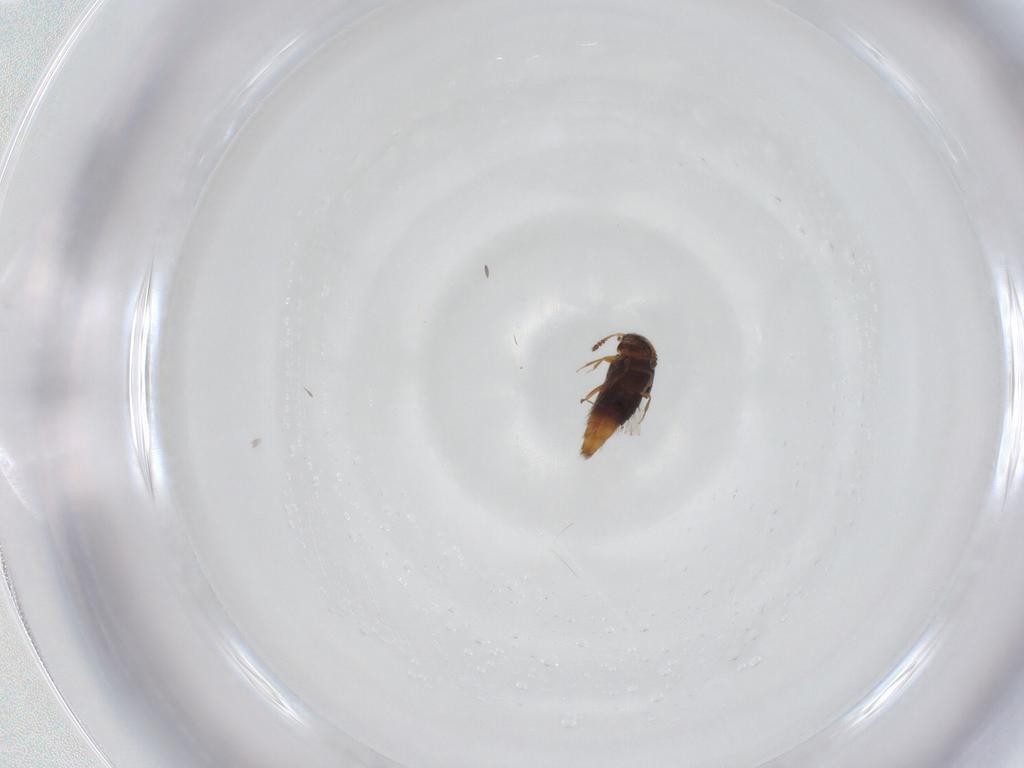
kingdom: Animalia
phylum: Arthropoda
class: Insecta
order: Coleoptera
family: Staphylinidae
